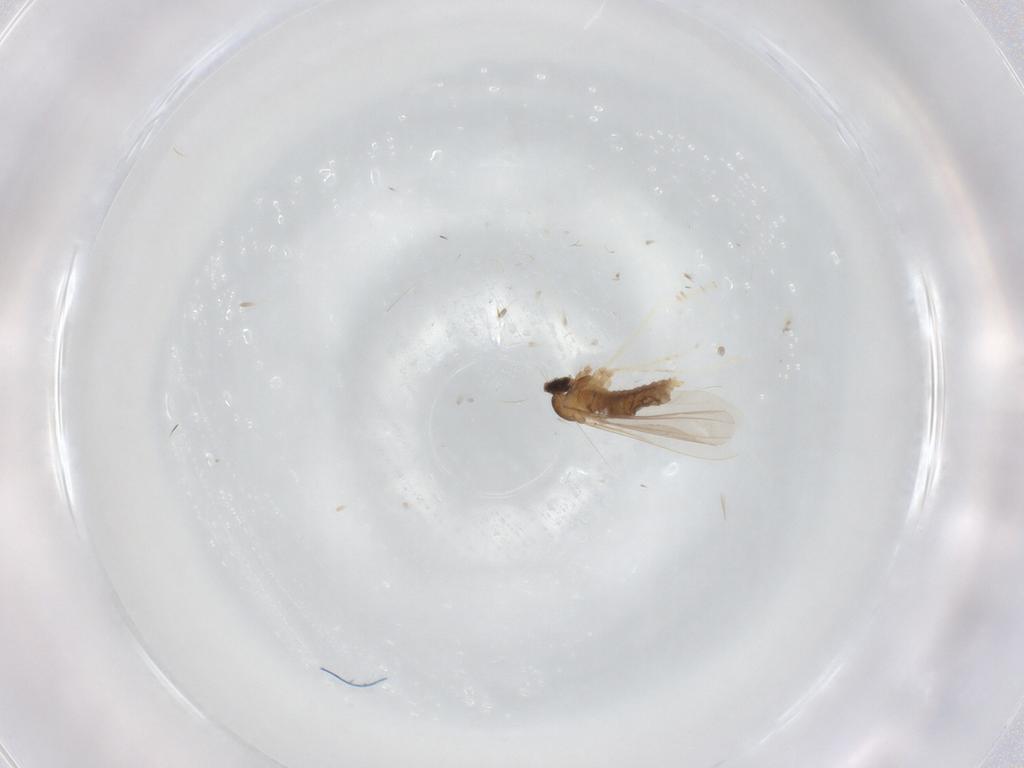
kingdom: Animalia
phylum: Arthropoda
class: Insecta
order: Diptera
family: Cecidomyiidae
